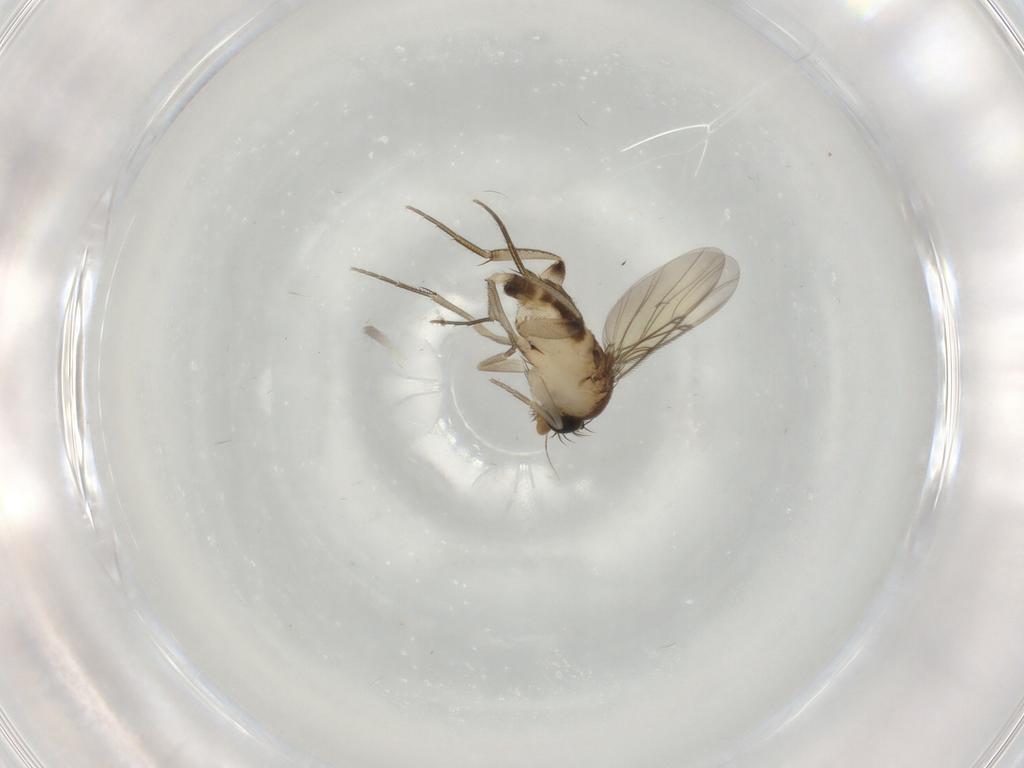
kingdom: Animalia
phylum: Arthropoda
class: Insecta
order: Diptera
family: Phoridae
